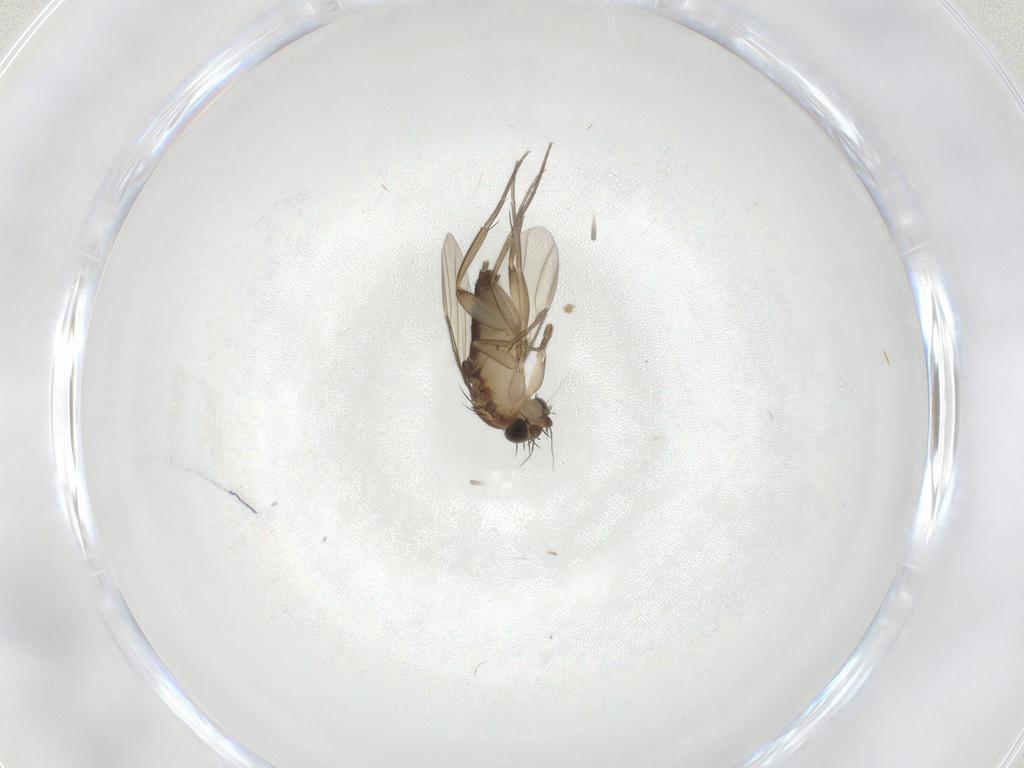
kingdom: Animalia
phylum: Arthropoda
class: Insecta
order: Diptera
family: Phoridae
